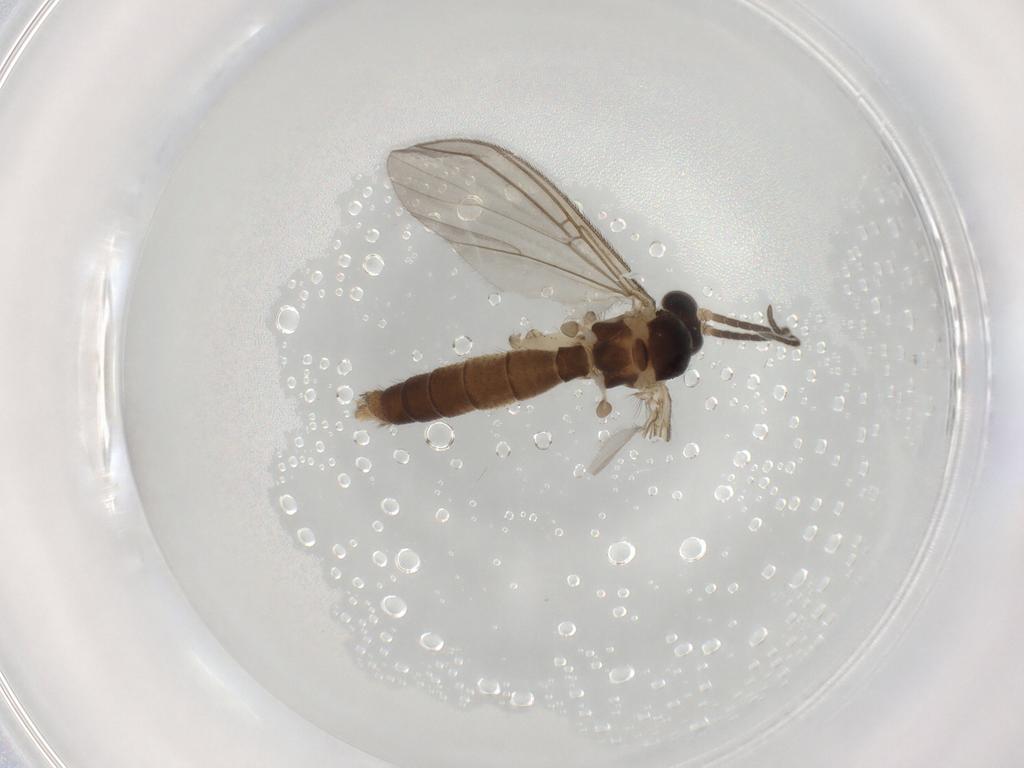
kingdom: Animalia
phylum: Arthropoda
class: Insecta
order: Diptera
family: Mycetophilidae
